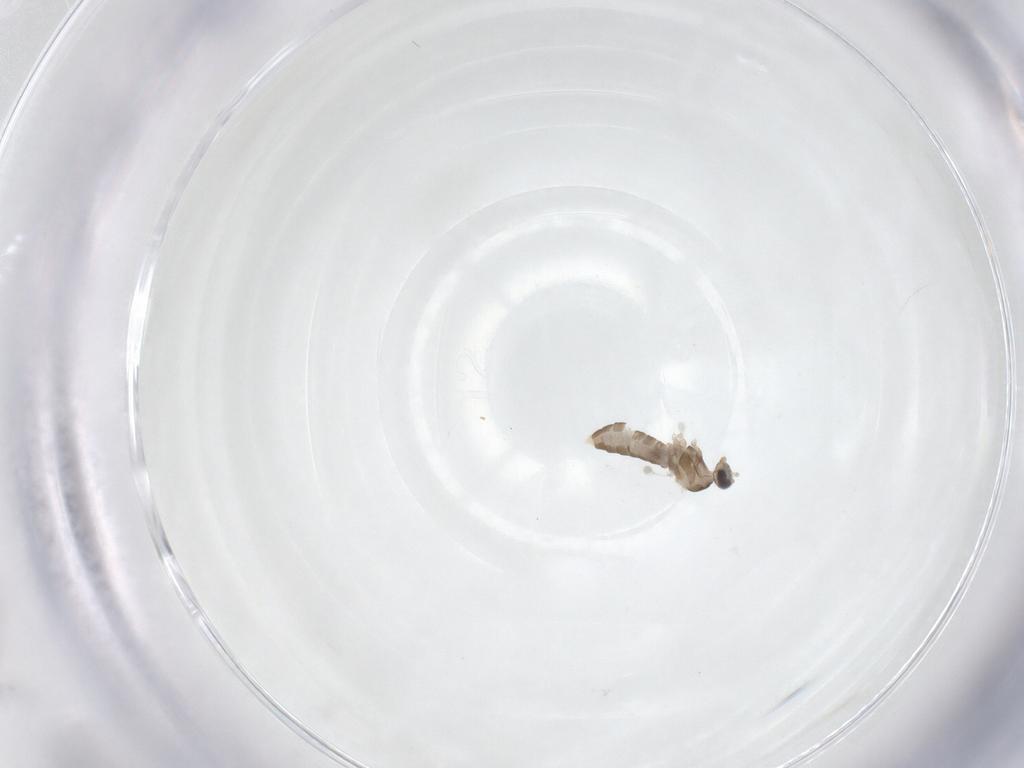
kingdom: Animalia
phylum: Arthropoda
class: Insecta
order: Diptera
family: Cecidomyiidae
